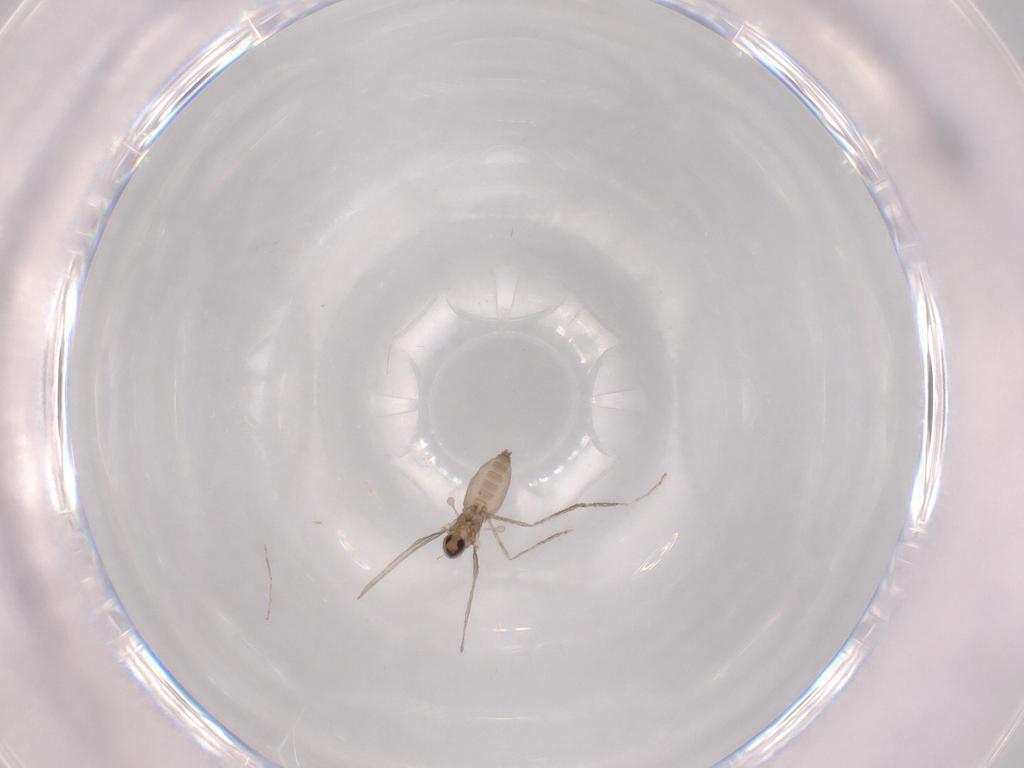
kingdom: Animalia
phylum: Arthropoda
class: Insecta
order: Diptera
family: Cecidomyiidae
